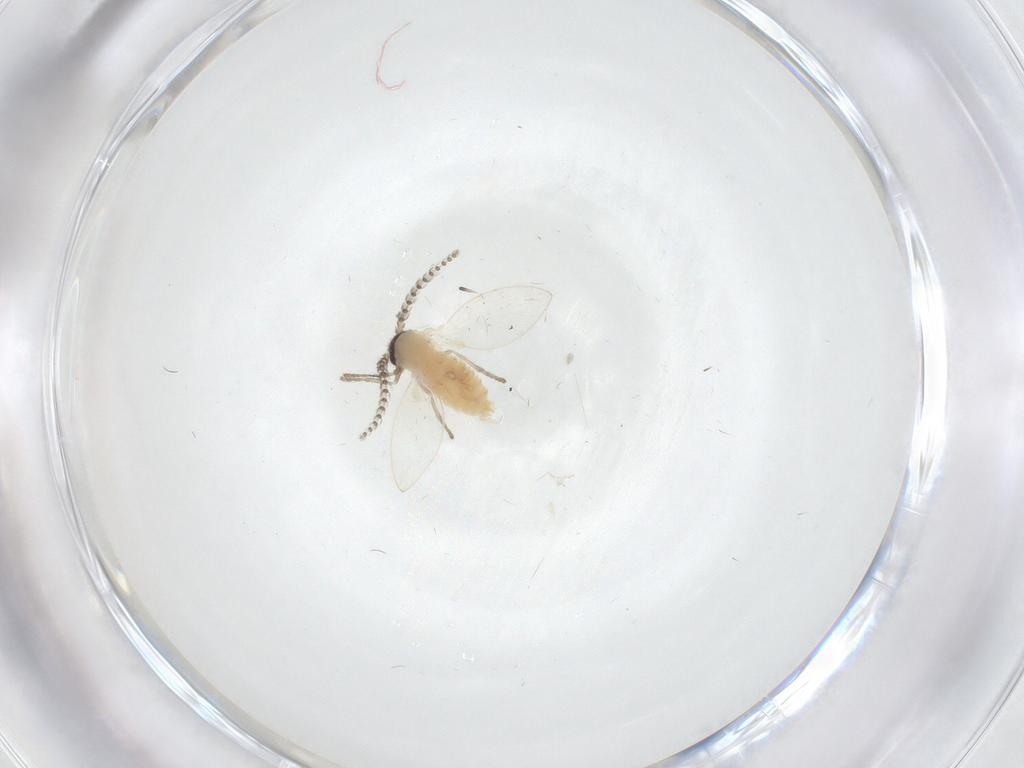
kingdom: Animalia
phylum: Arthropoda
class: Insecta
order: Diptera
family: Psychodidae
